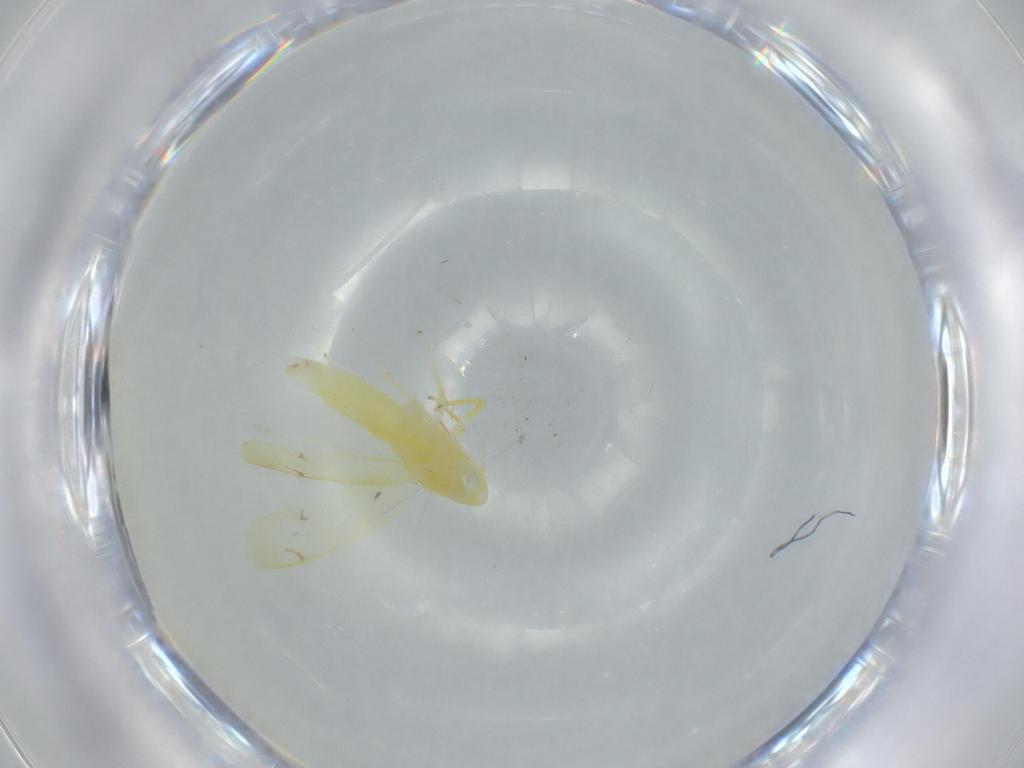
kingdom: Animalia
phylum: Arthropoda
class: Insecta
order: Hemiptera
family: Cicadellidae
